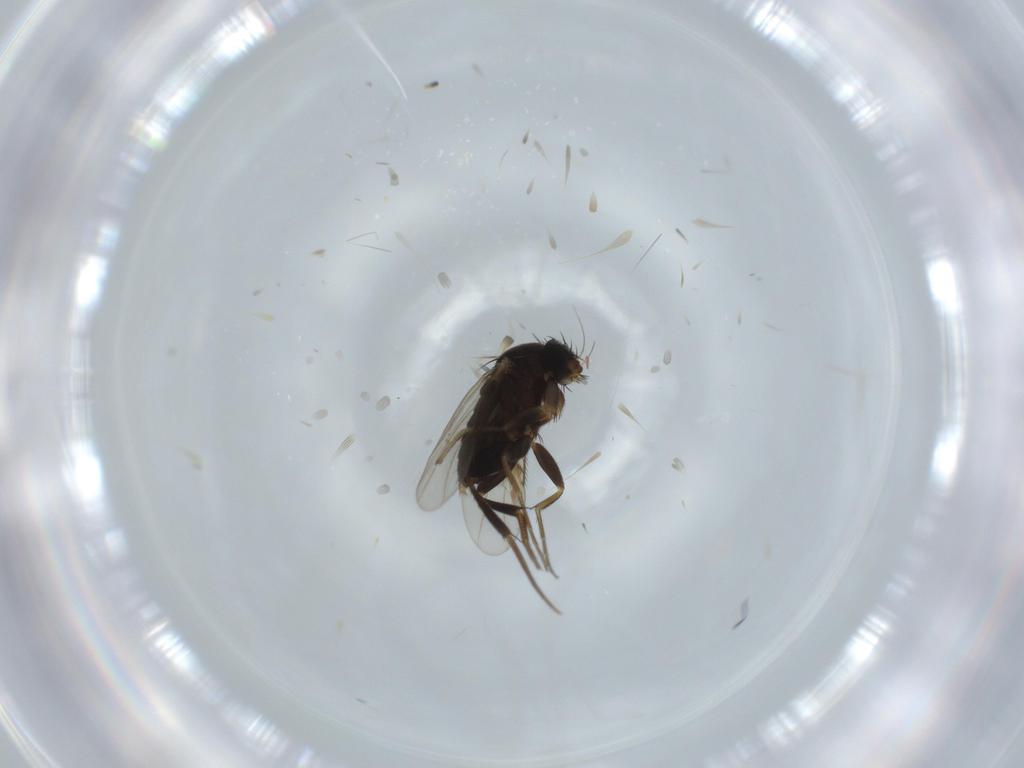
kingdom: Animalia
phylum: Arthropoda
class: Insecta
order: Diptera
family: Phoridae
